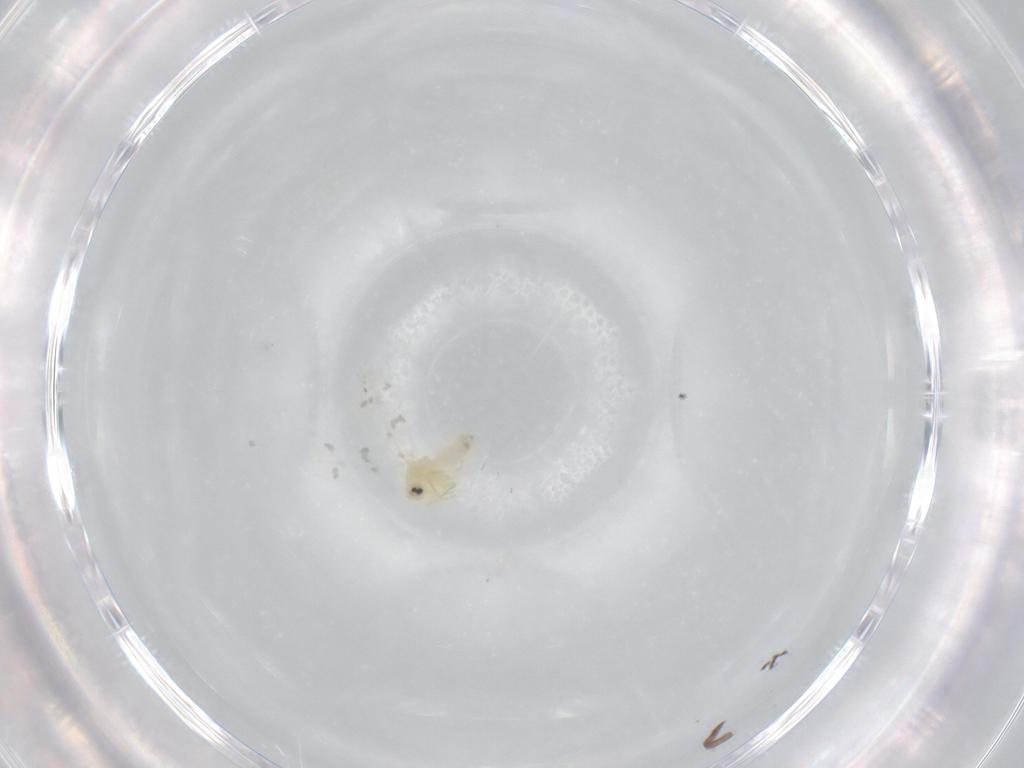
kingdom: Animalia
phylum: Arthropoda
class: Insecta
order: Hemiptera
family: Aleyrodidae
